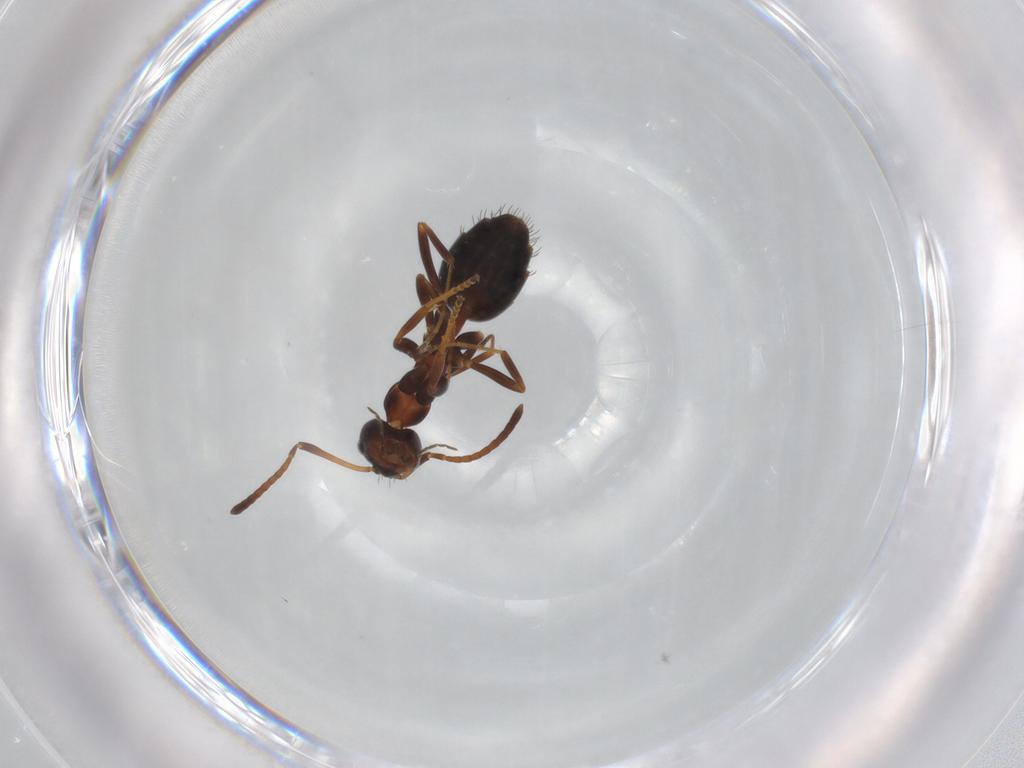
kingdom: Animalia
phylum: Arthropoda
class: Insecta
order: Hymenoptera
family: Formicidae
